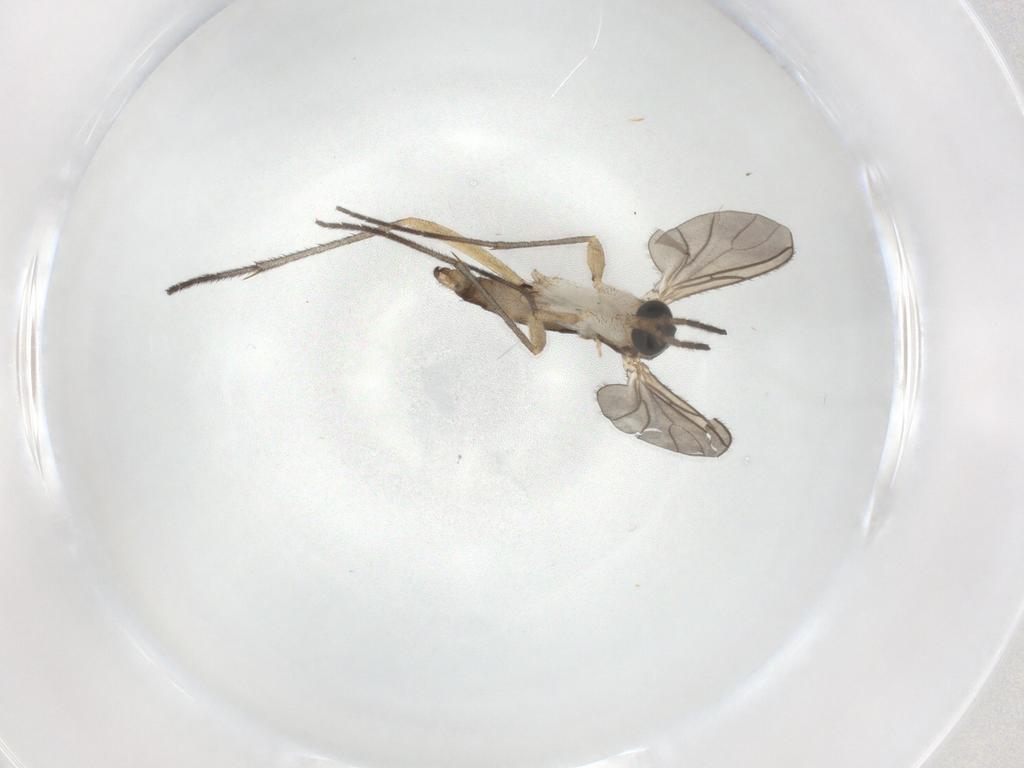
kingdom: Animalia
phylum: Arthropoda
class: Insecta
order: Diptera
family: Sciaridae
